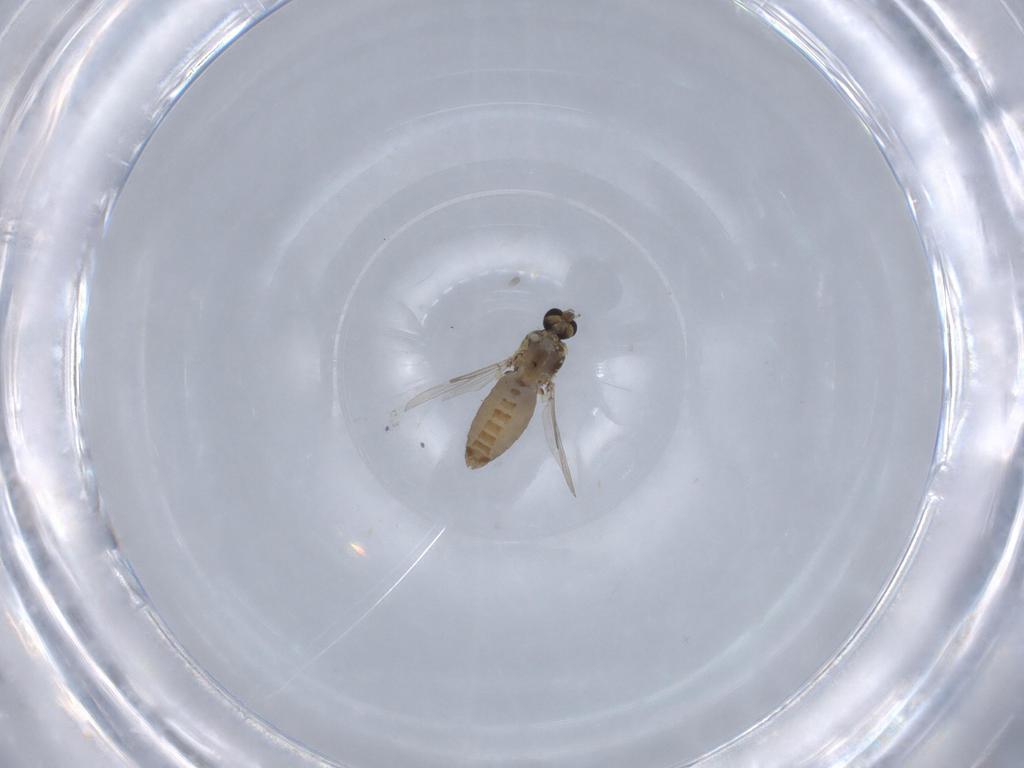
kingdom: Animalia
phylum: Arthropoda
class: Insecta
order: Diptera
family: Ceratopogonidae
